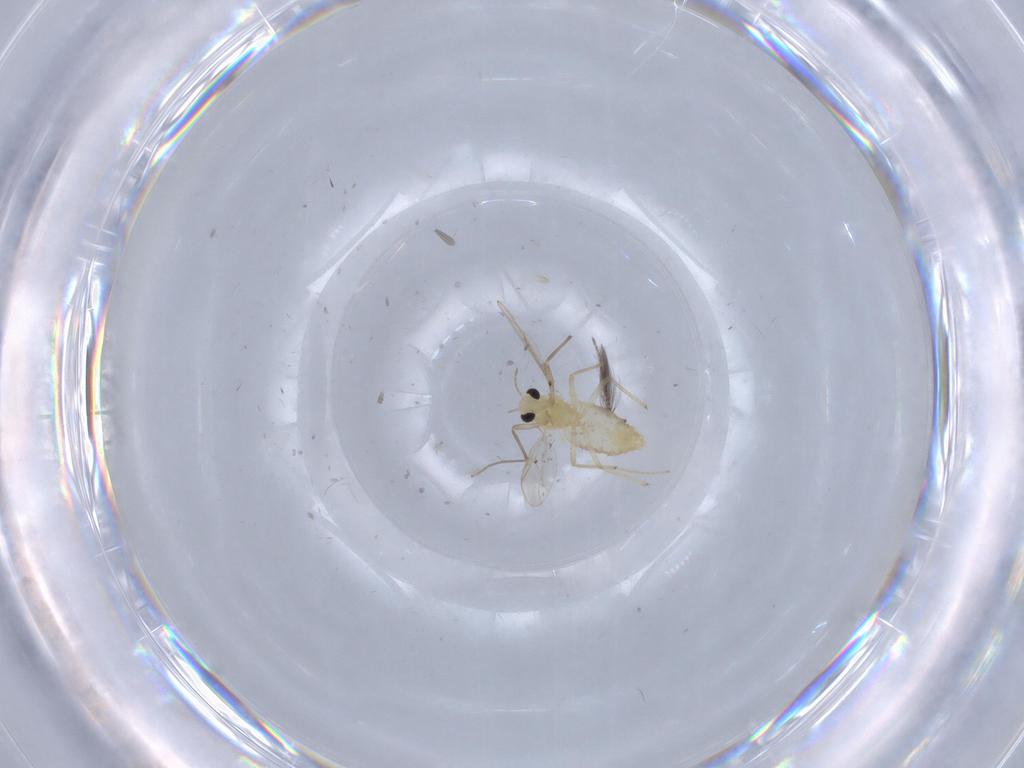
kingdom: Animalia
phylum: Arthropoda
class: Insecta
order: Diptera
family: Chironomidae
